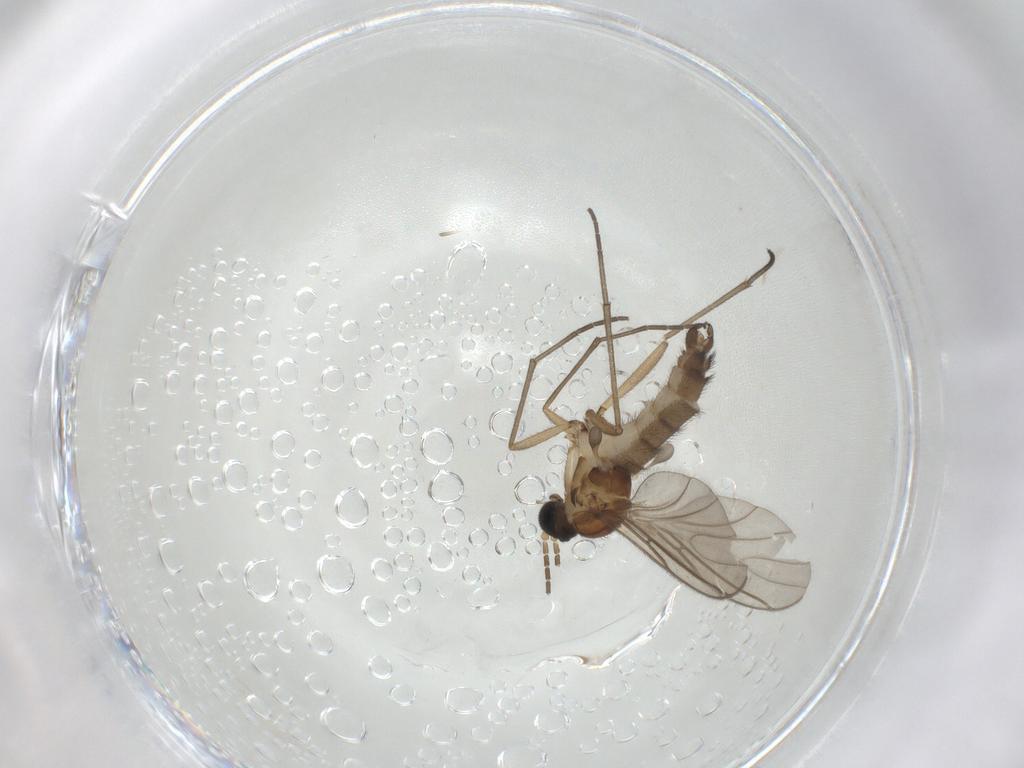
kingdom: Animalia
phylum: Arthropoda
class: Insecta
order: Diptera
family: Sciaridae
